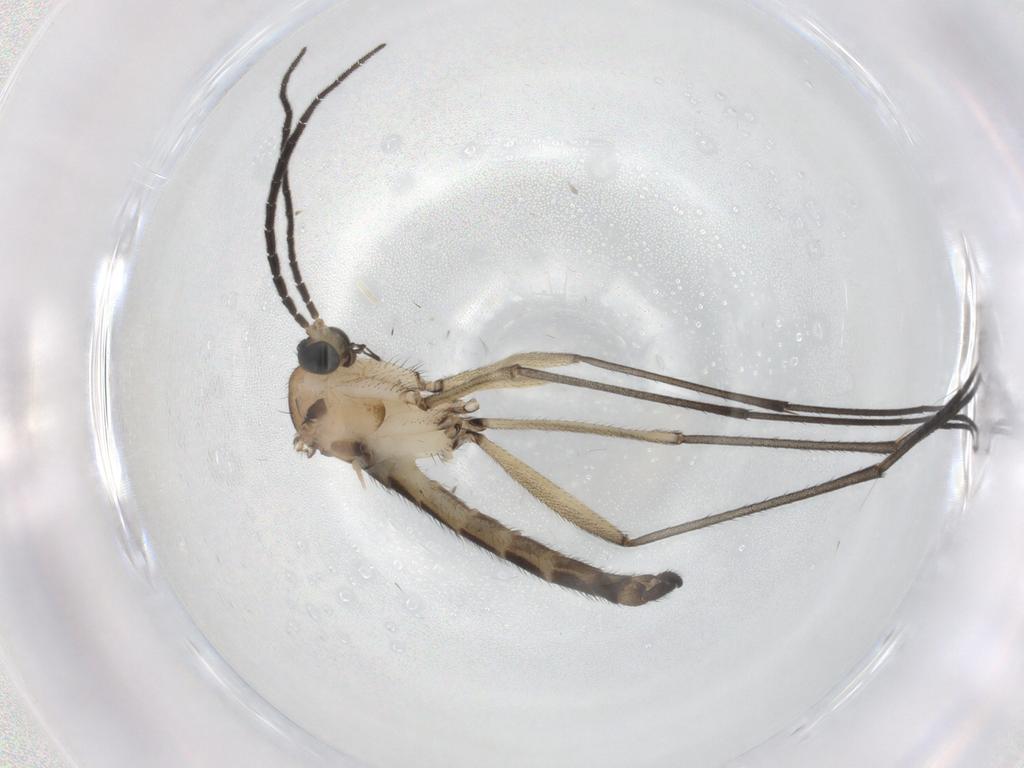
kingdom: Animalia
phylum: Arthropoda
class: Insecta
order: Diptera
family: Sciaridae
